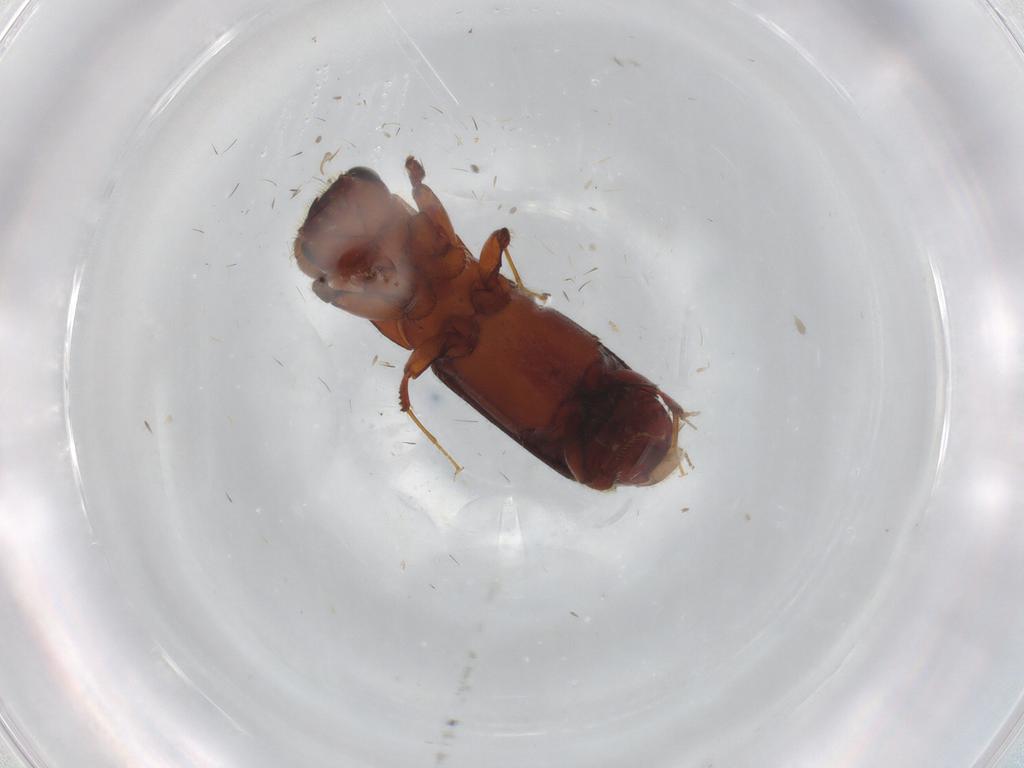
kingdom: Animalia
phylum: Arthropoda
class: Insecta
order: Coleoptera
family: Curculionidae
